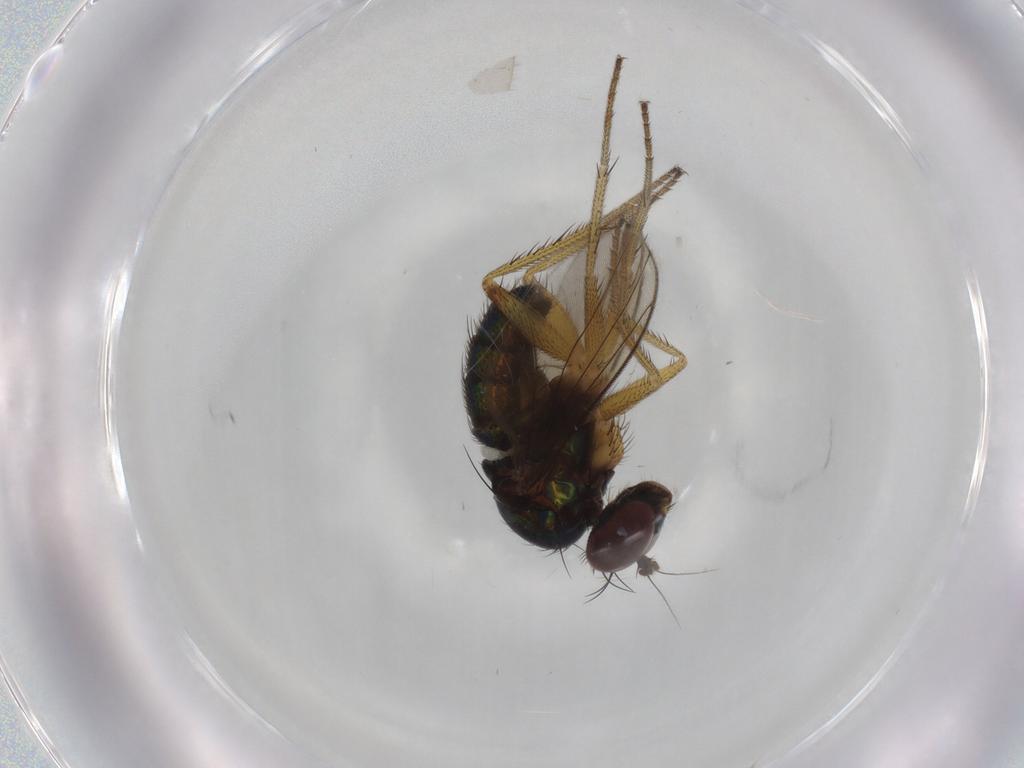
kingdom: Animalia
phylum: Arthropoda
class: Insecta
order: Diptera
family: Dolichopodidae
